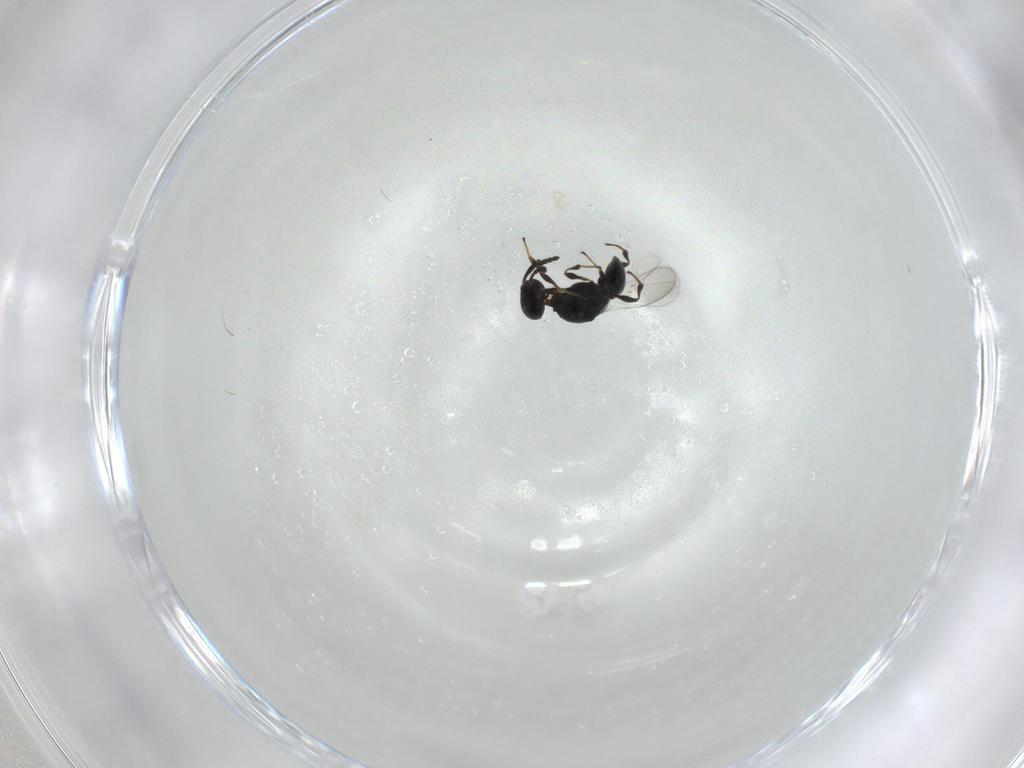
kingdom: Animalia
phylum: Arthropoda
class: Insecta
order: Hymenoptera
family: Platygastridae
